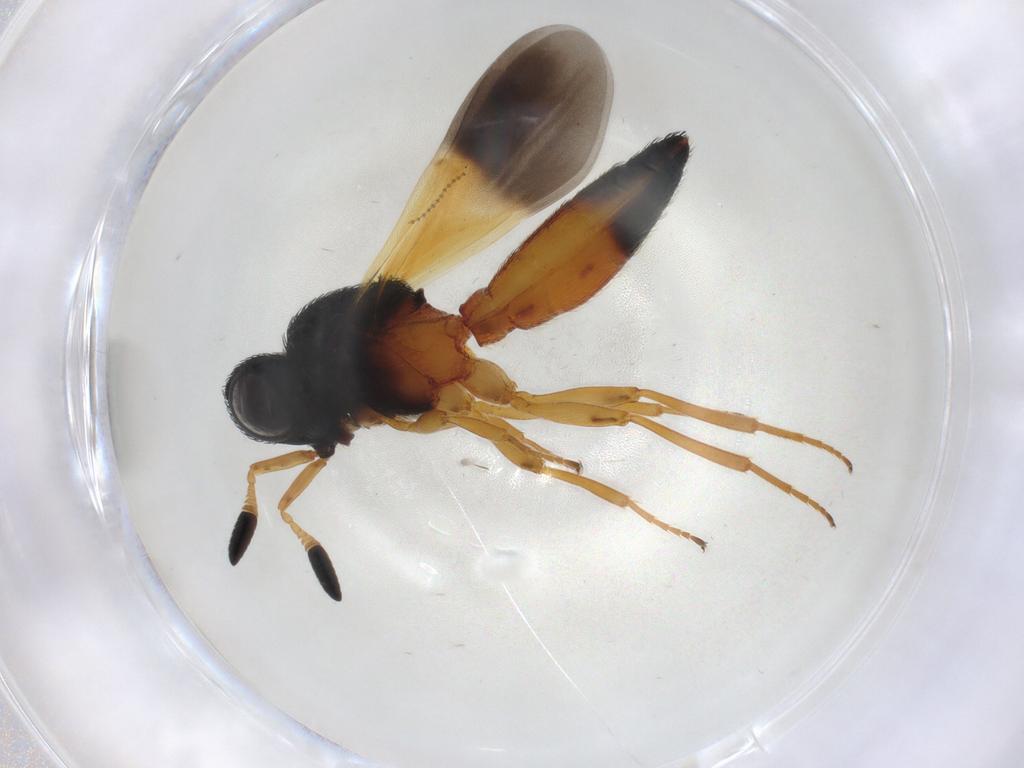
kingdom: Animalia
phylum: Arthropoda
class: Insecta
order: Hymenoptera
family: Scelionidae
